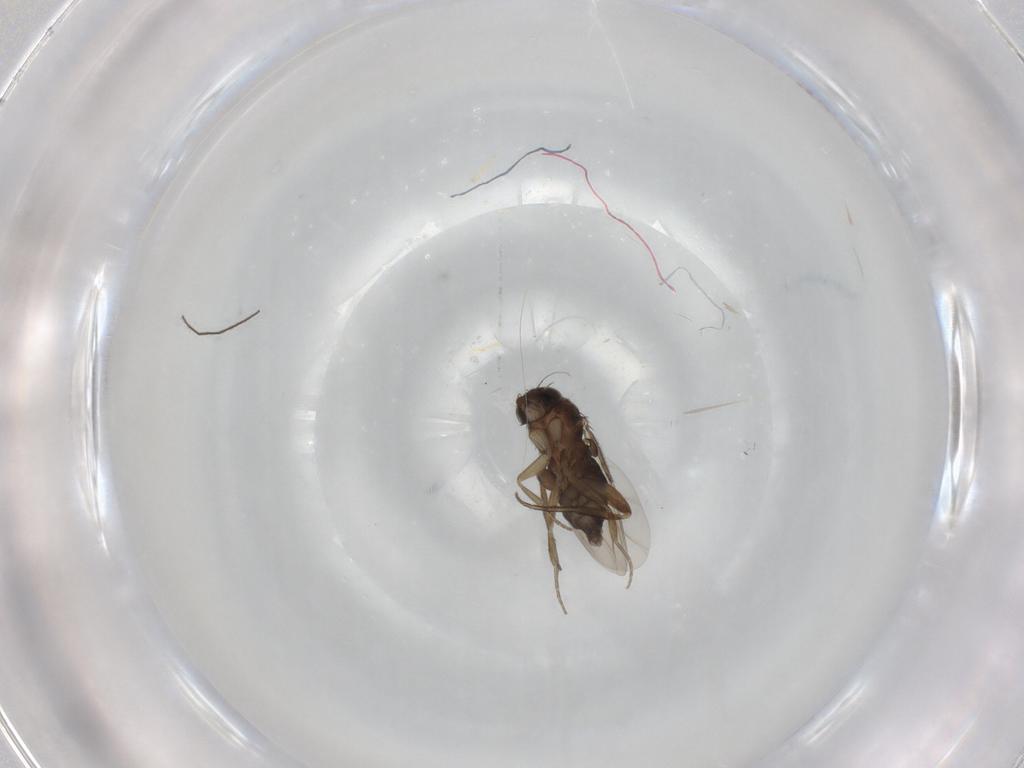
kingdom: Animalia
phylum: Arthropoda
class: Insecta
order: Diptera
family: Phoridae
